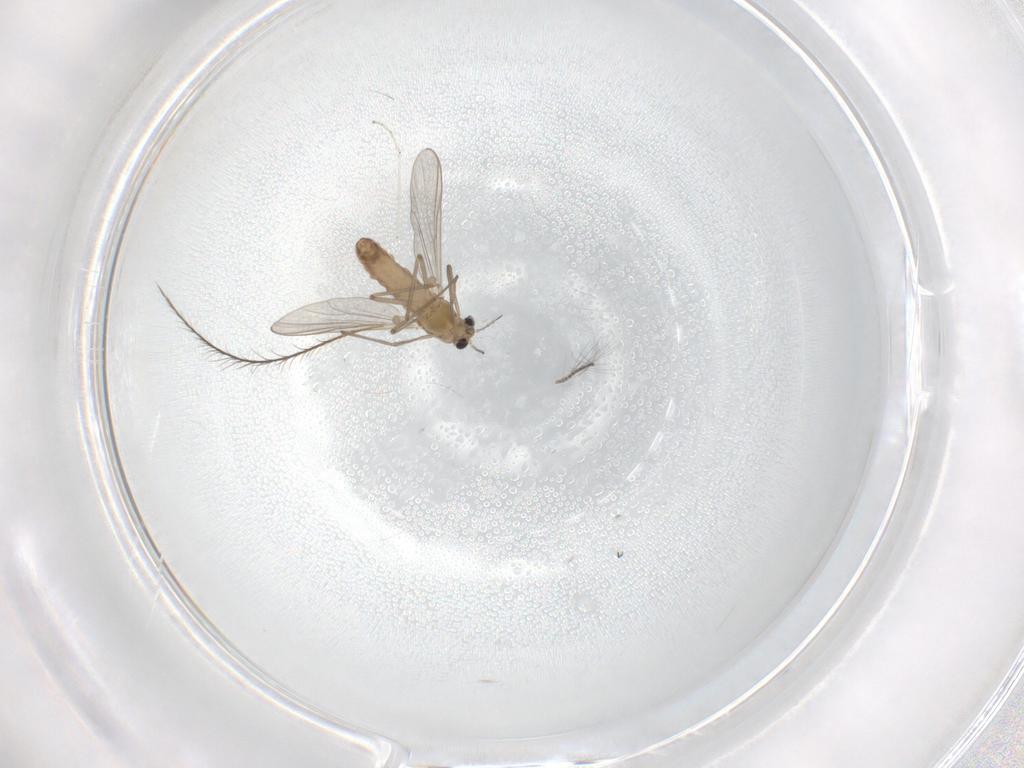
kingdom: Animalia
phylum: Arthropoda
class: Insecta
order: Diptera
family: Chironomidae
